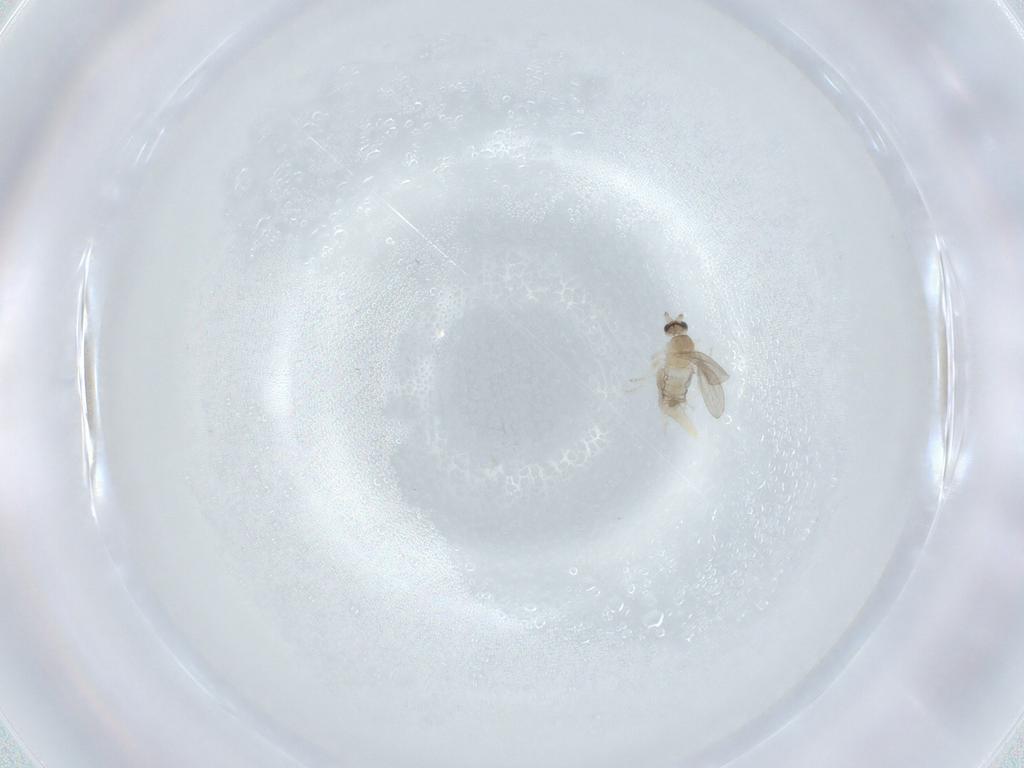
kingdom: Animalia
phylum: Arthropoda
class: Insecta
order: Diptera
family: Cecidomyiidae
